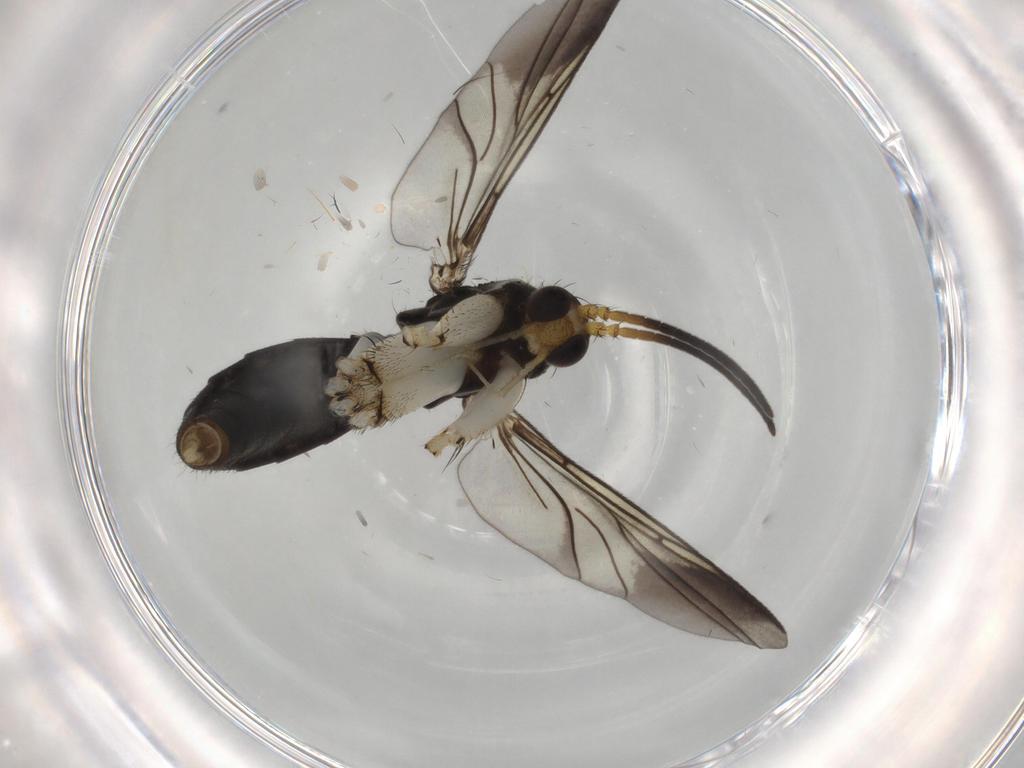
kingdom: Animalia
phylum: Arthropoda
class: Insecta
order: Diptera
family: Mycetophilidae
